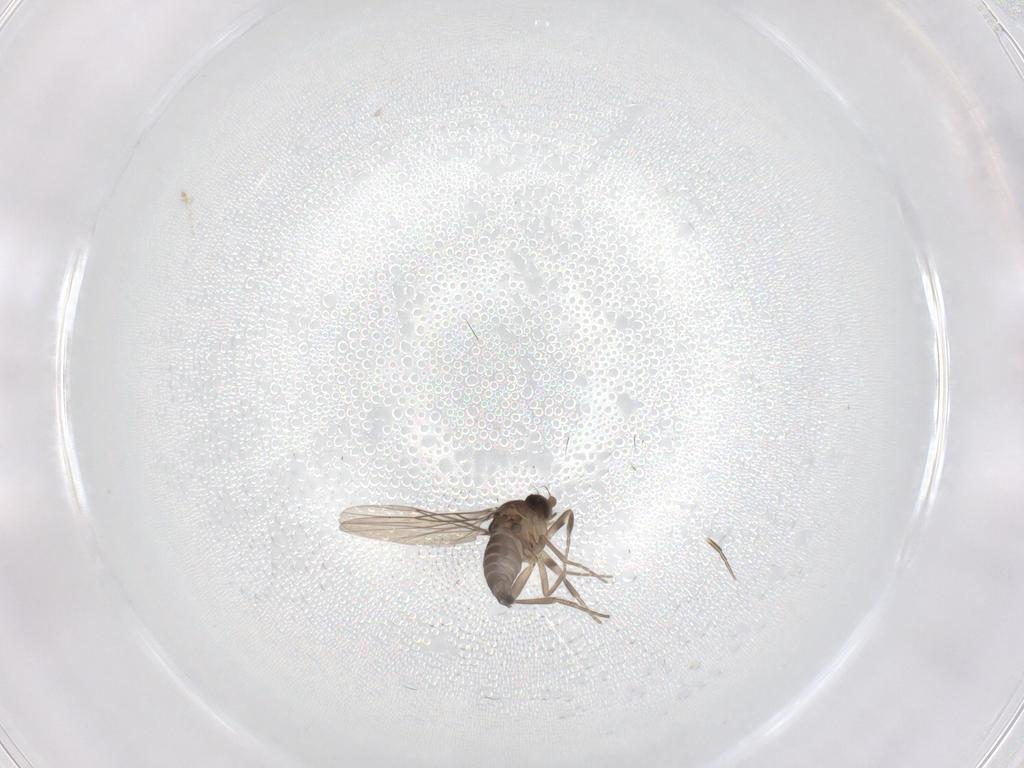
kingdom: Animalia
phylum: Arthropoda
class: Insecta
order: Diptera
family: Phoridae
